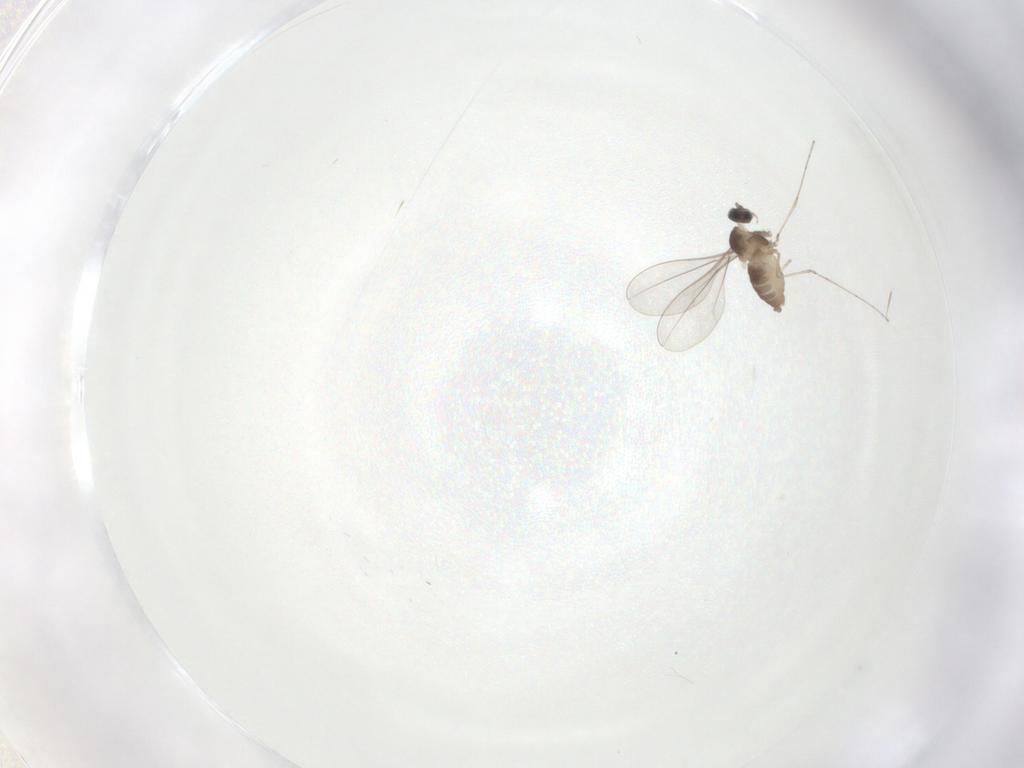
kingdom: Animalia
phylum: Arthropoda
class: Insecta
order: Diptera
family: Cecidomyiidae
